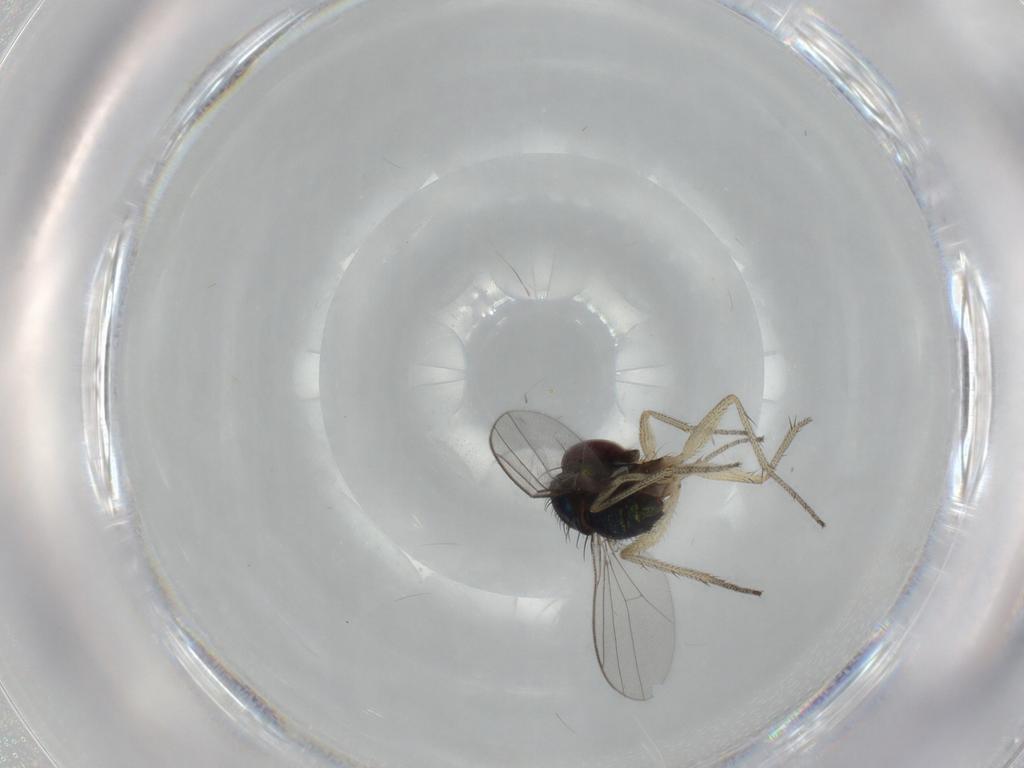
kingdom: Animalia
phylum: Arthropoda
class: Insecta
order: Diptera
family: Dolichopodidae
